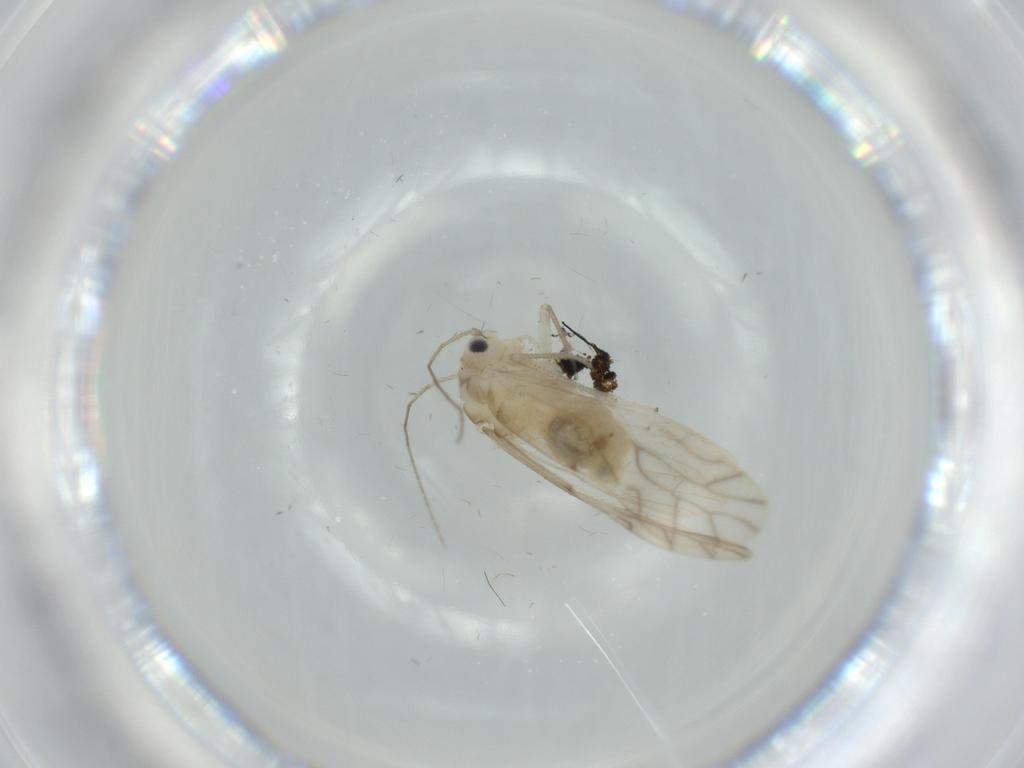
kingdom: Animalia
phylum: Arthropoda
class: Insecta
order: Psocodea
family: Caeciliusidae
